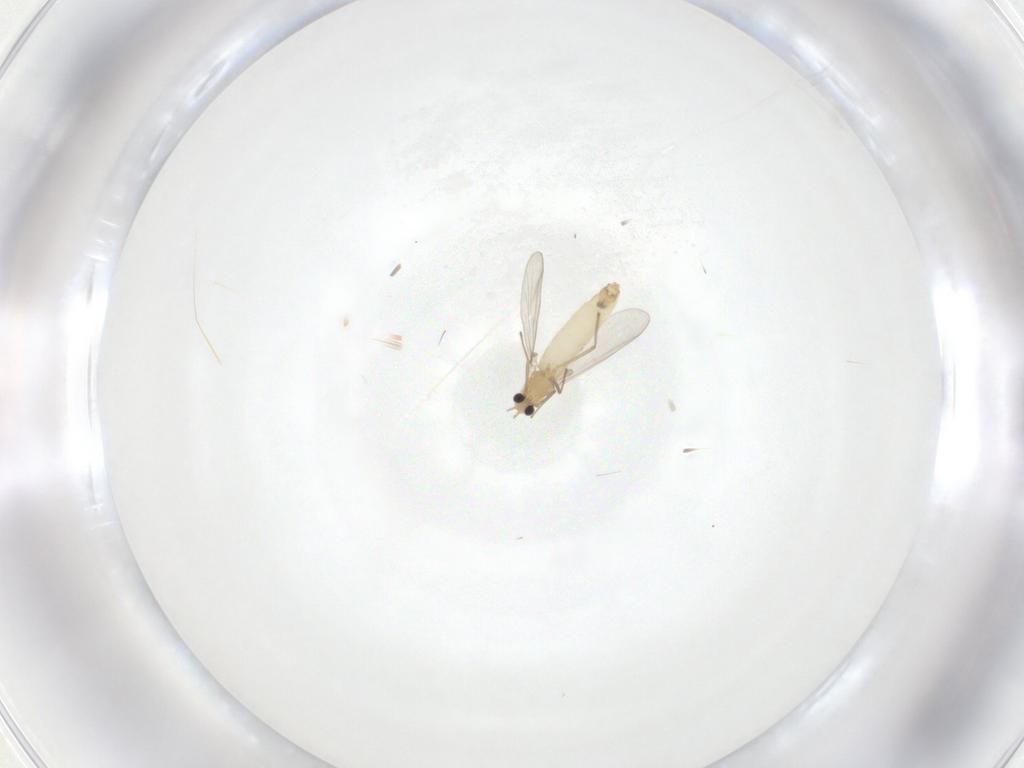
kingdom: Animalia
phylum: Arthropoda
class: Insecta
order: Diptera
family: Chironomidae
